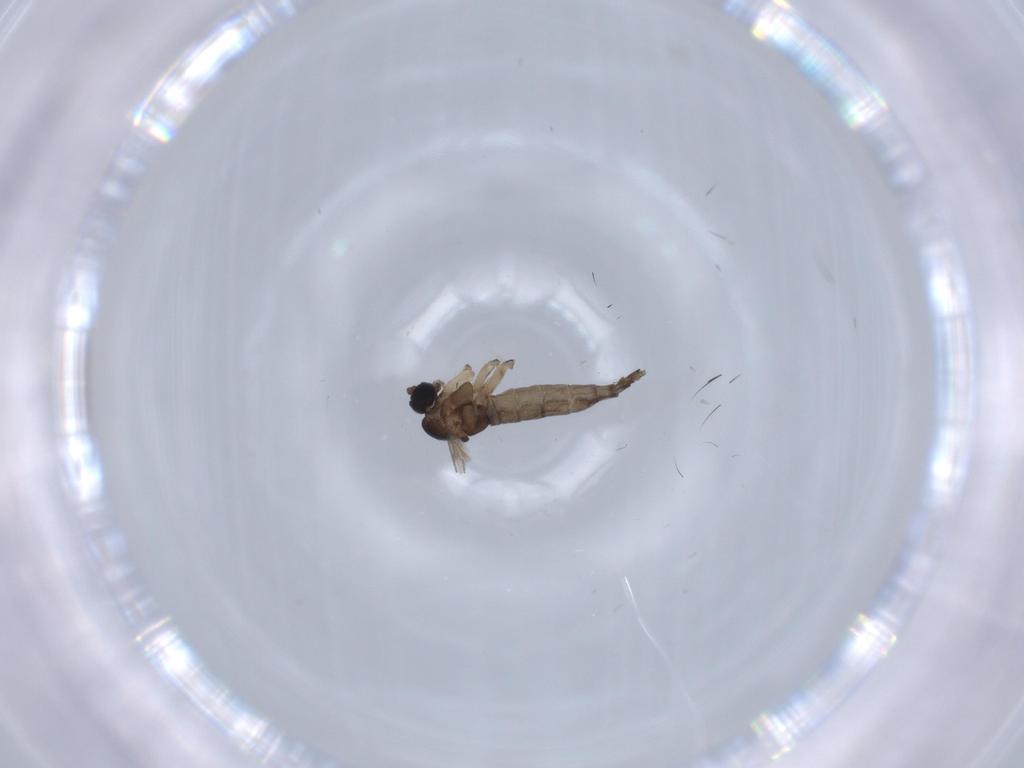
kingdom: Animalia
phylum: Arthropoda
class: Insecta
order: Diptera
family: Sciaridae
